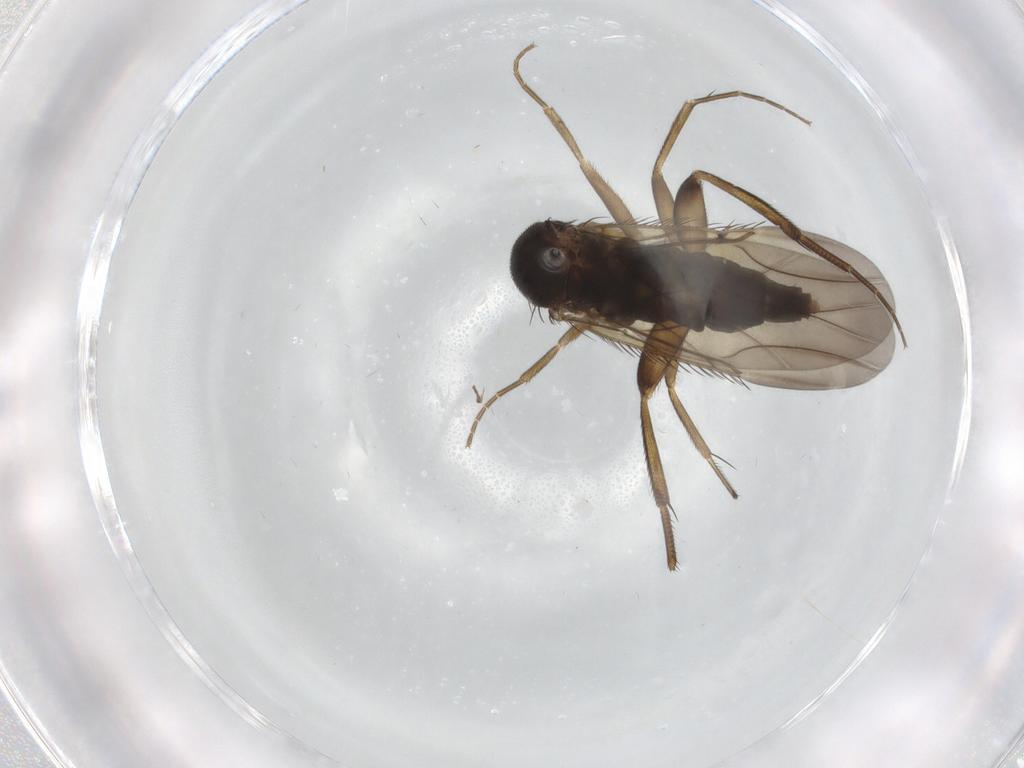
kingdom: Animalia
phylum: Arthropoda
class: Insecta
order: Diptera
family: Phoridae
